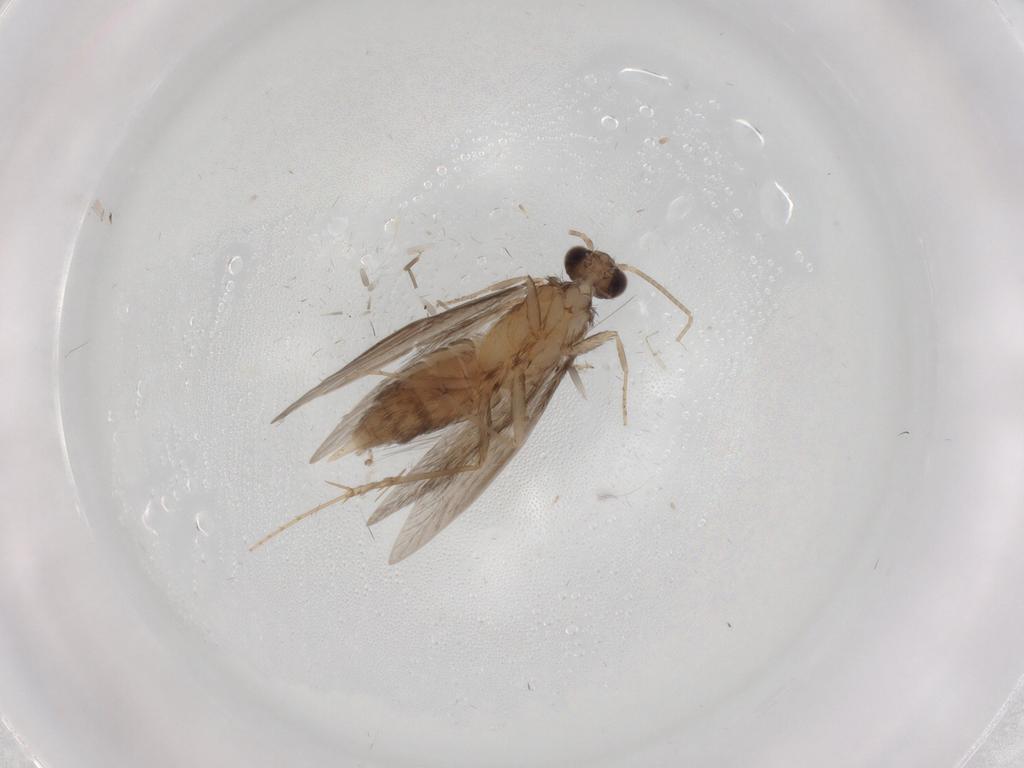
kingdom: Animalia
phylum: Arthropoda
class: Insecta
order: Trichoptera
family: Hydroptilidae
